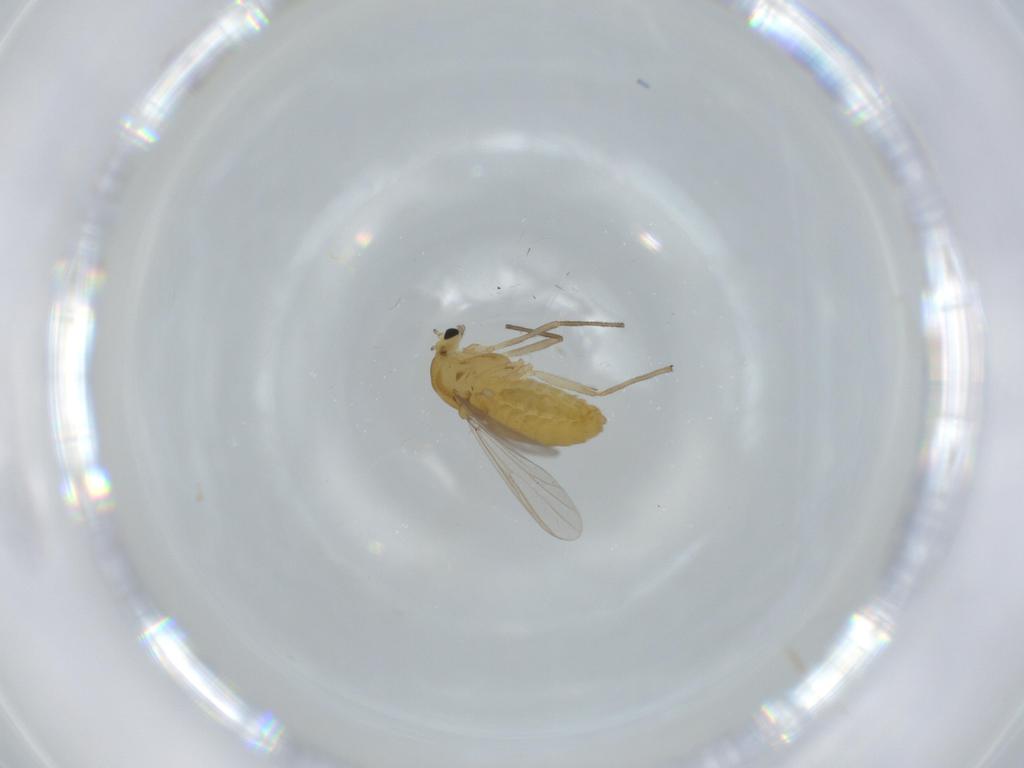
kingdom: Animalia
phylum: Arthropoda
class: Insecta
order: Diptera
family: Chironomidae
